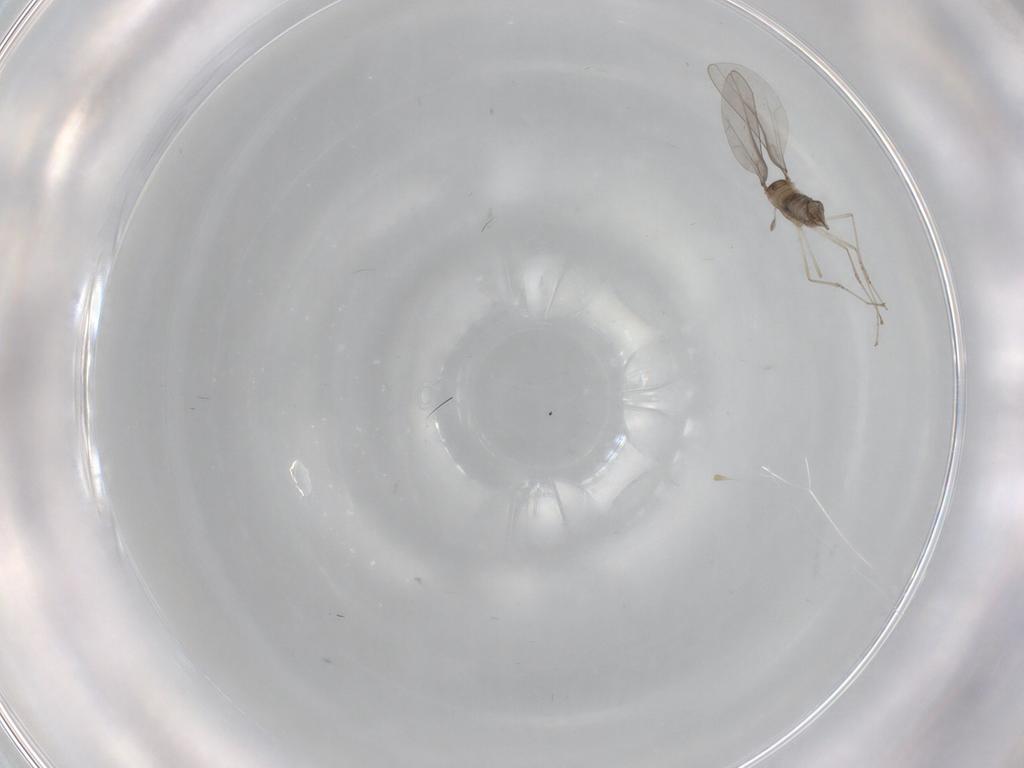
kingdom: Animalia
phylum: Arthropoda
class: Insecta
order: Diptera
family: Cecidomyiidae
